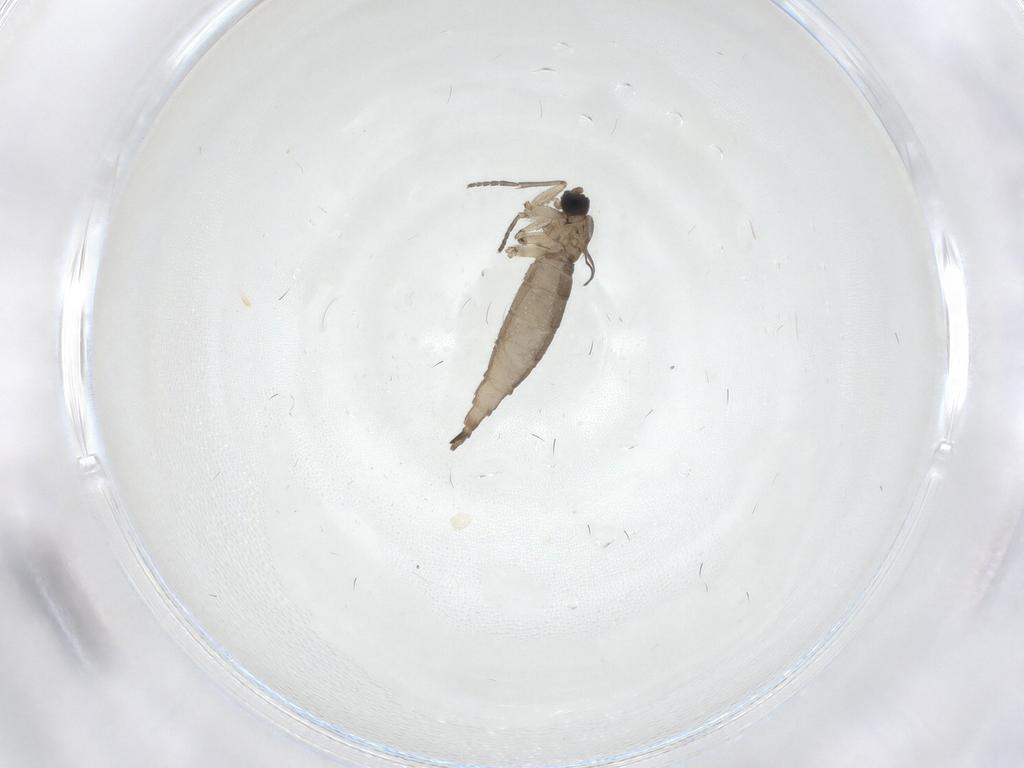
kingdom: Animalia
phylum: Arthropoda
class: Insecta
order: Diptera
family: Sciaridae
